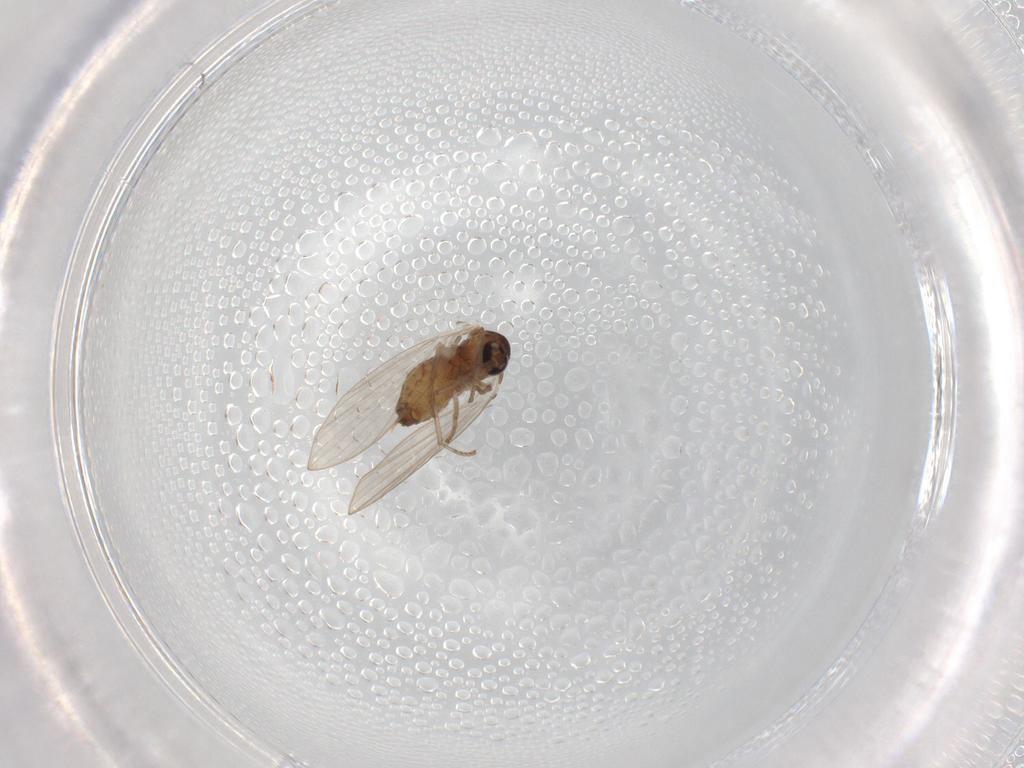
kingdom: Animalia
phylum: Arthropoda
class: Insecta
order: Diptera
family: Psychodidae
